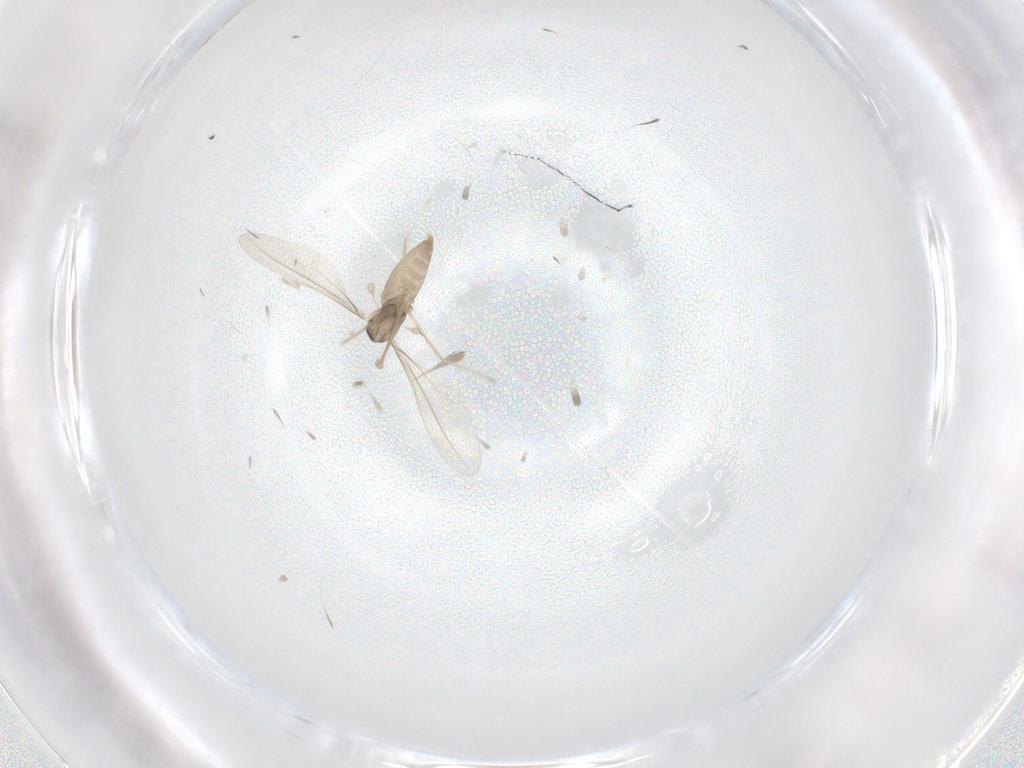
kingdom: Animalia
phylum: Arthropoda
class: Insecta
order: Diptera
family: Cecidomyiidae
